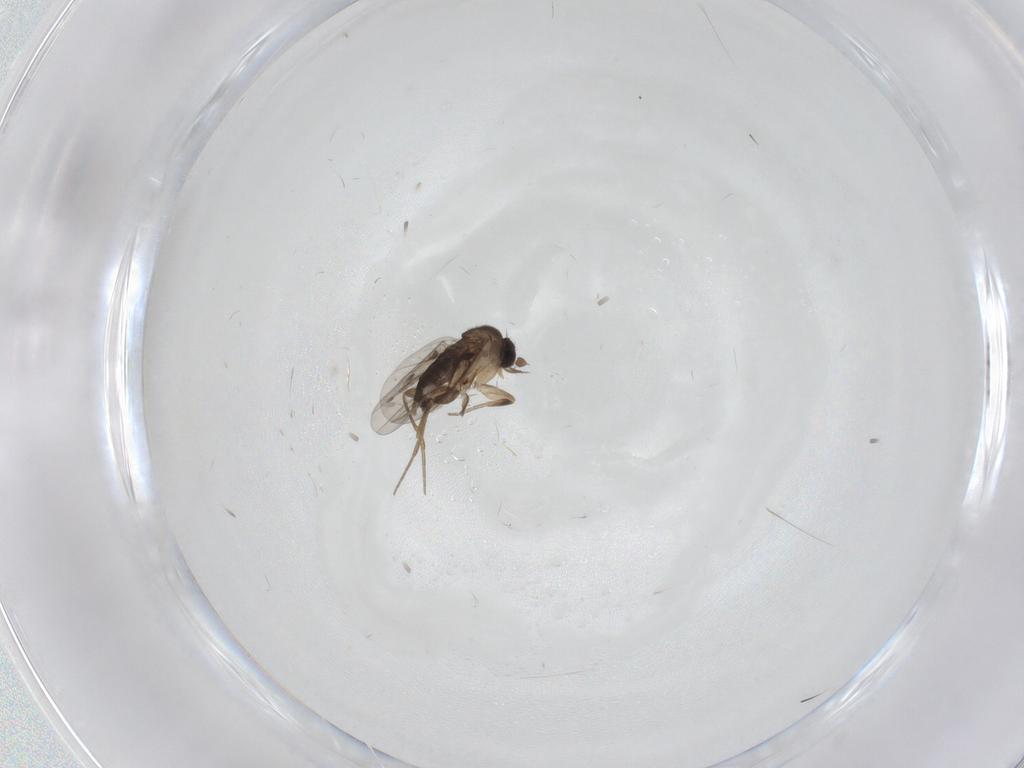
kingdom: Animalia
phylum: Arthropoda
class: Insecta
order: Diptera
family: Phoridae
